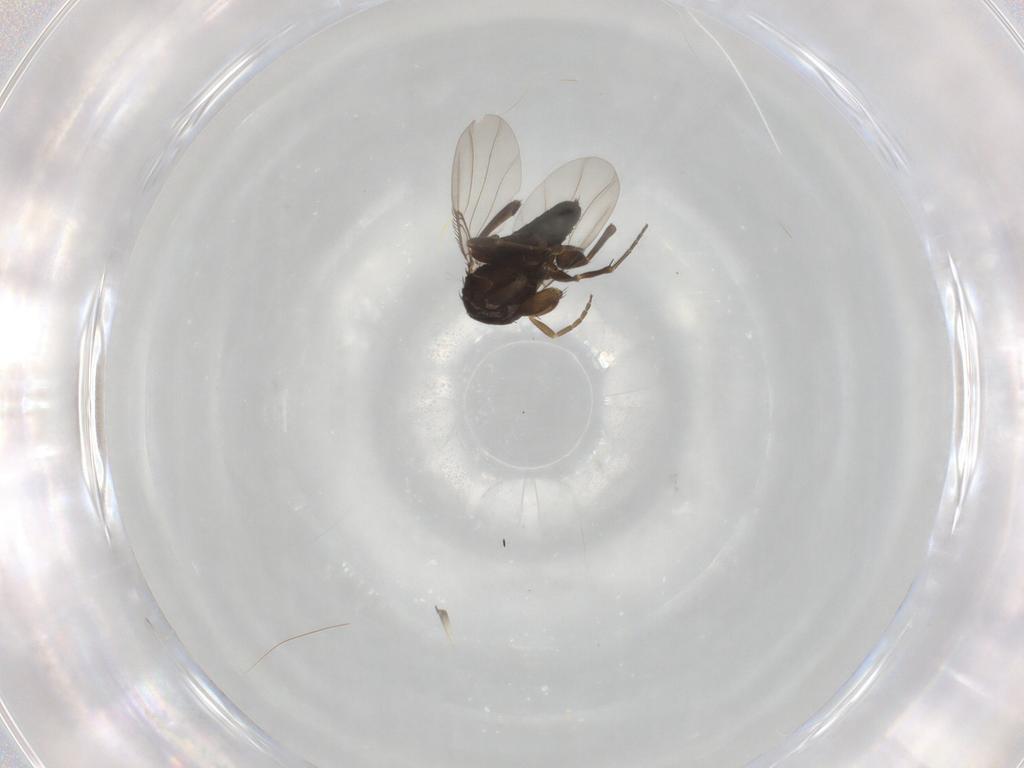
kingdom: Animalia
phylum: Arthropoda
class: Insecta
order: Diptera
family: Phoridae
